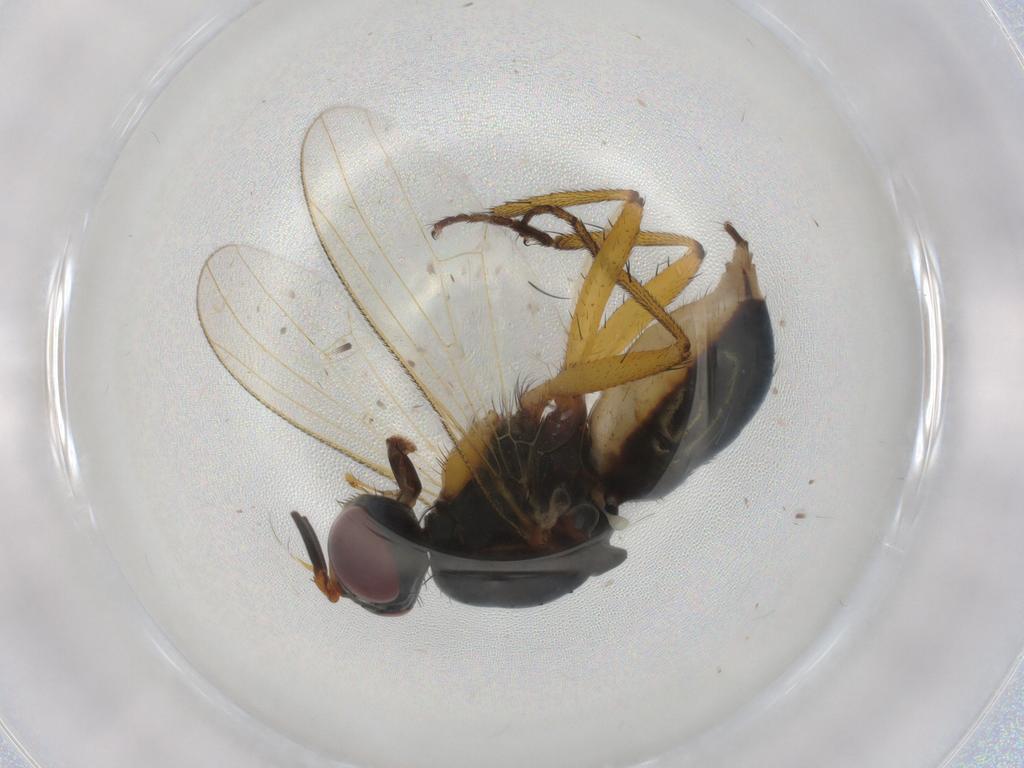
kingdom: Animalia
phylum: Arthropoda
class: Insecta
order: Diptera
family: Muscidae
